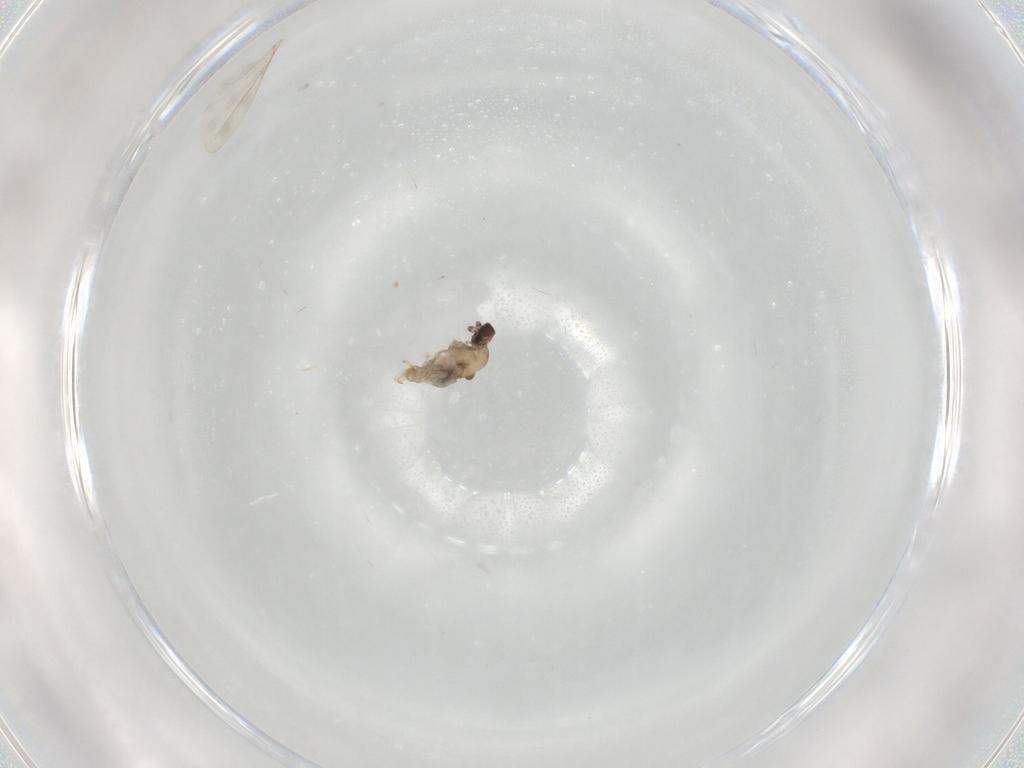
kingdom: Animalia
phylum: Arthropoda
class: Insecta
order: Diptera
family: Cecidomyiidae
